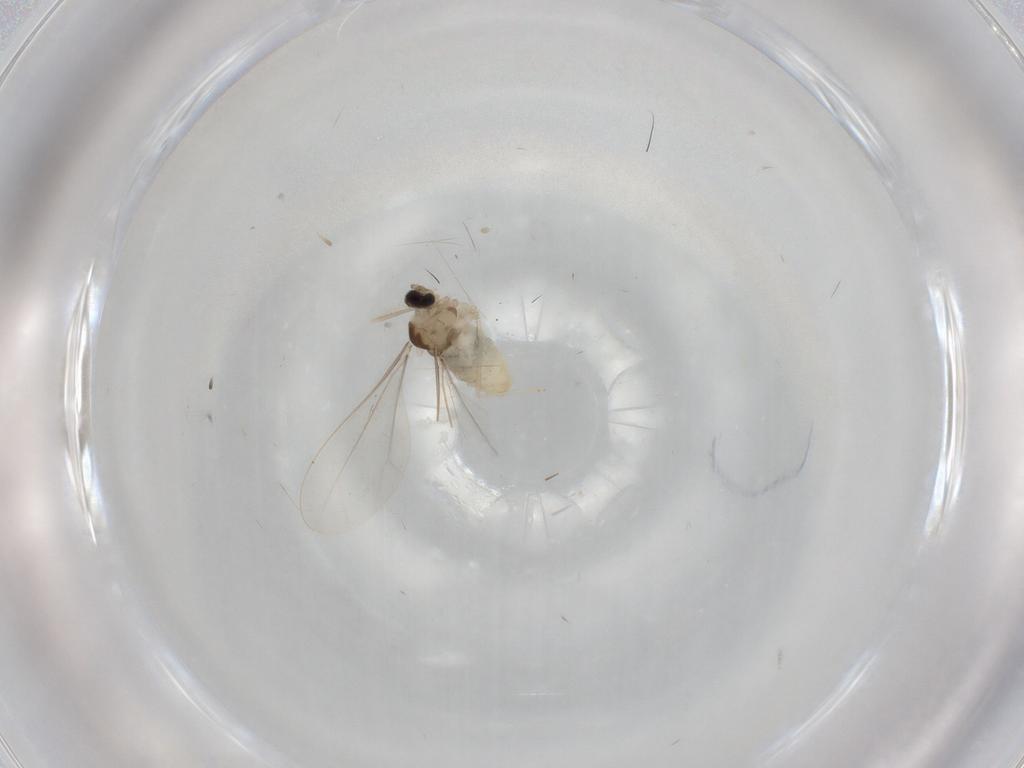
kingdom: Animalia
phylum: Arthropoda
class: Insecta
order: Diptera
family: Cecidomyiidae
